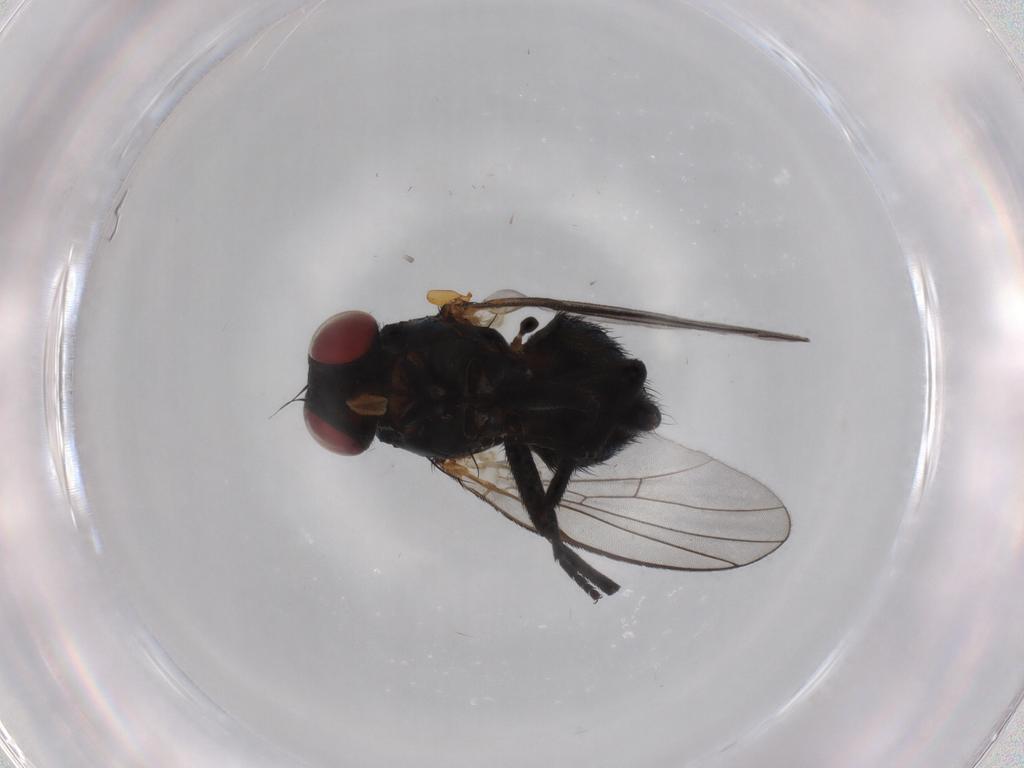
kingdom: Animalia
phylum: Arthropoda
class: Insecta
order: Diptera
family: Agromyzidae
